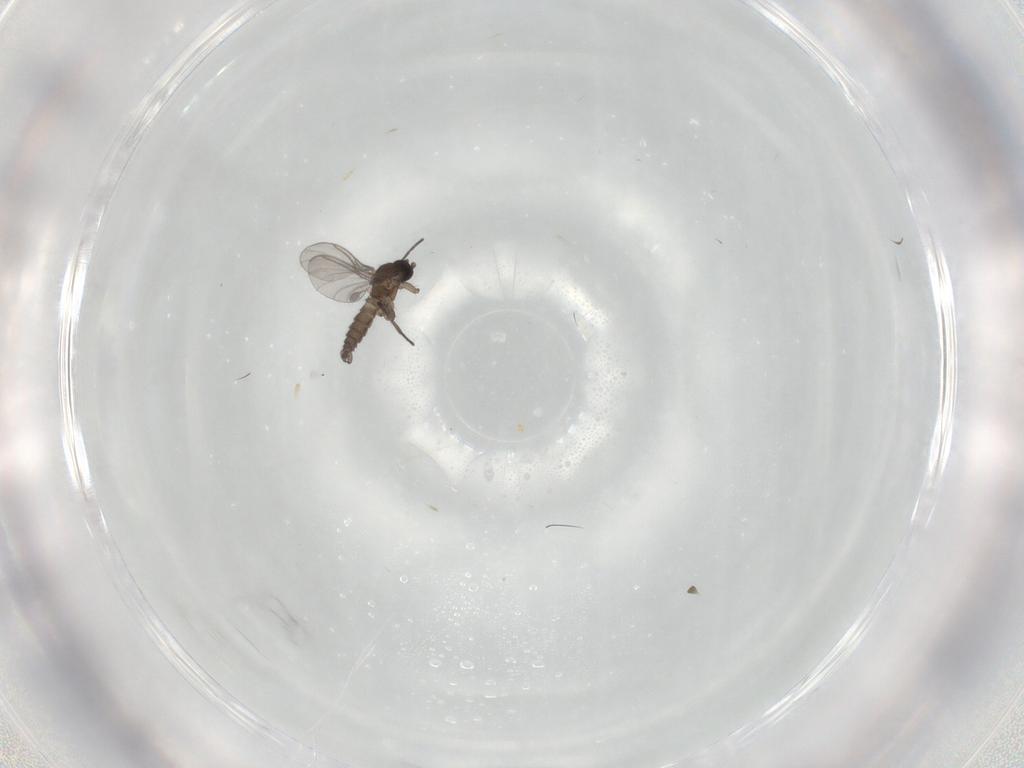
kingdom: Animalia
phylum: Arthropoda
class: Insecta
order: Diptera
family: Sciaridae
